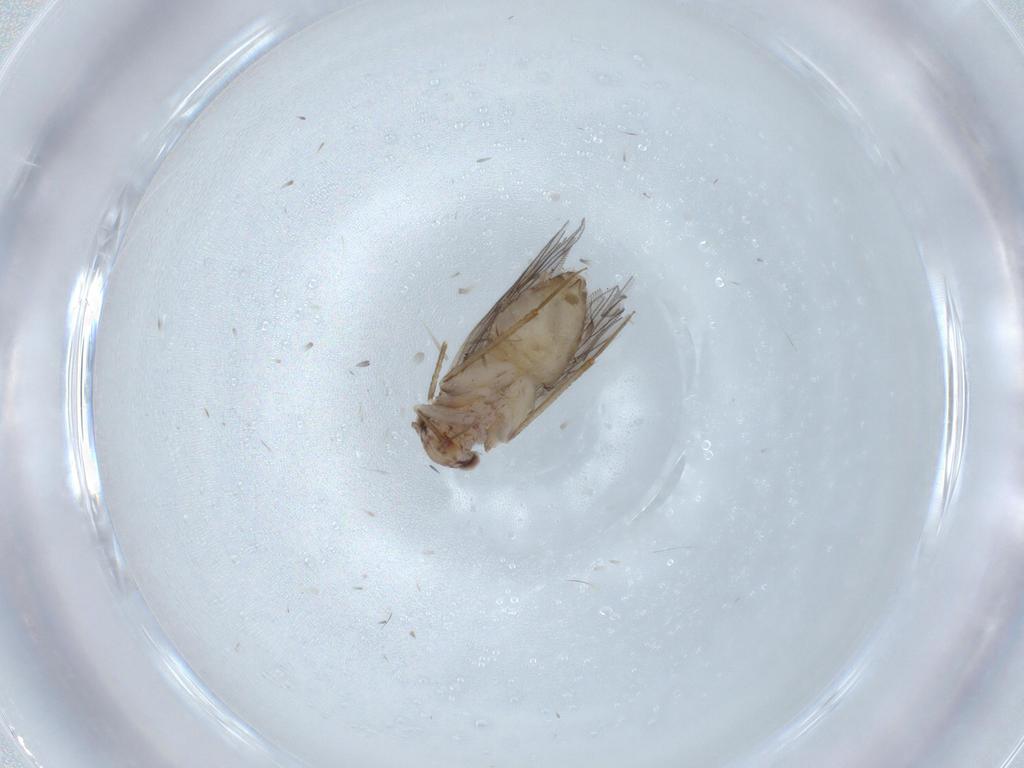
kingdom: Animalia
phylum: Arthropoda
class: Insecta
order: Psocodea
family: Lepidopsocidae
